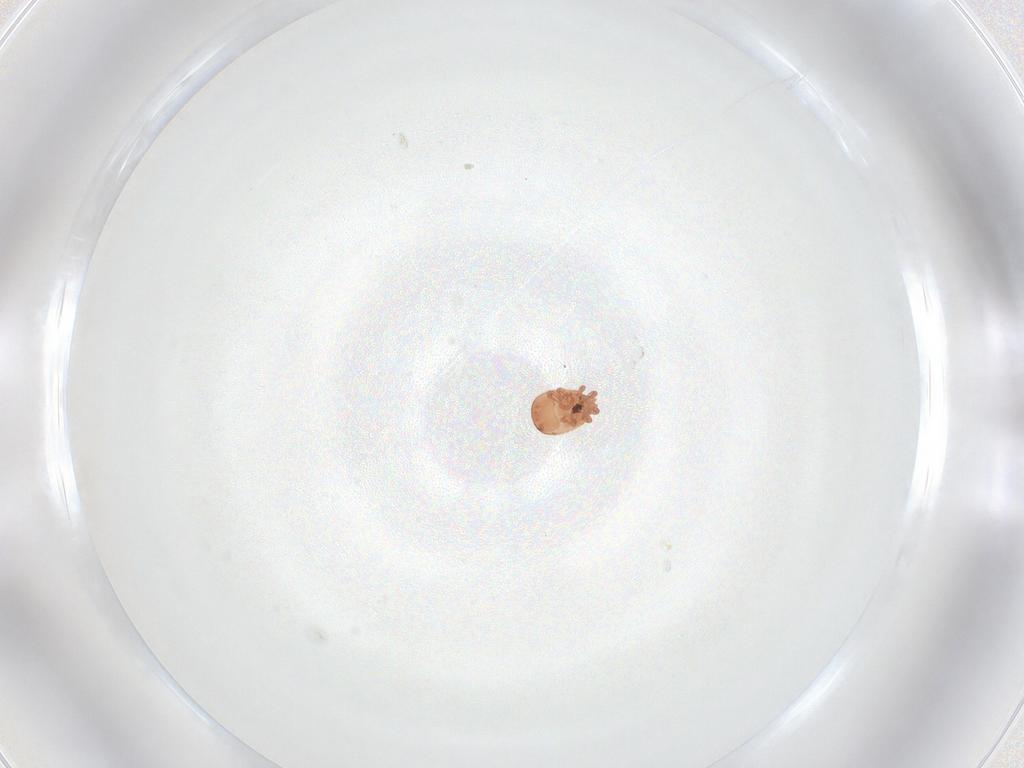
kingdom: Animalia
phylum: Arthropoda
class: Arachnida
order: Mesostigmata
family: Zerconidae
